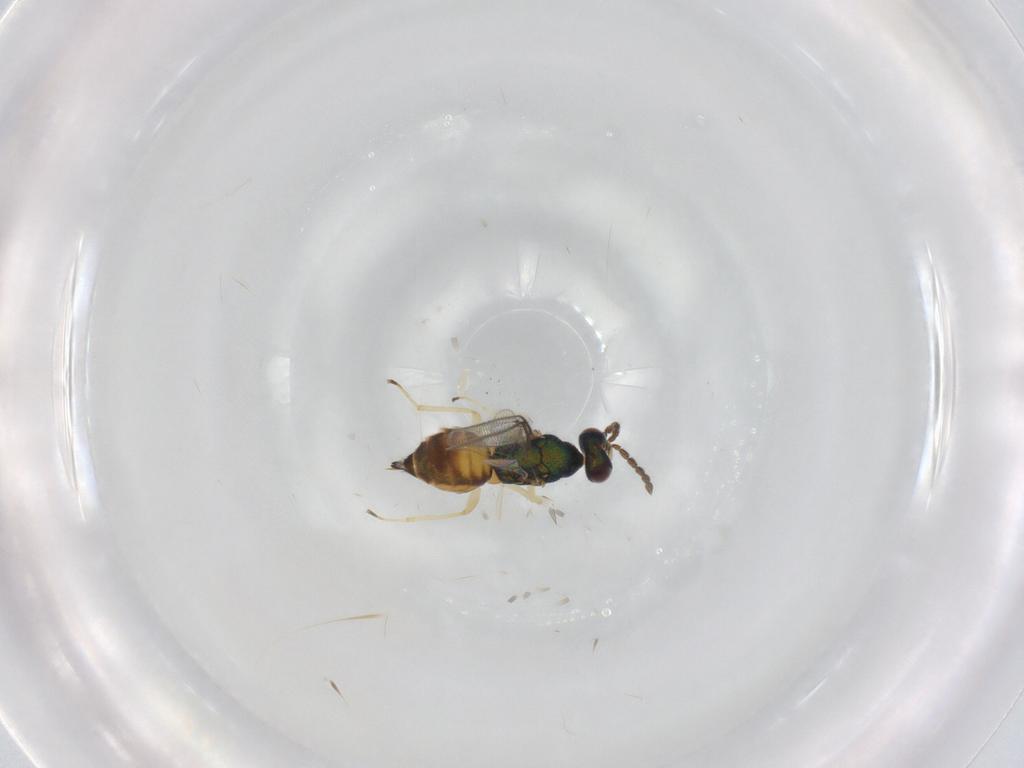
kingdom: Animalia
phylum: Arthropoda
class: Insecta
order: Hymenoptera
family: Eulophidae
